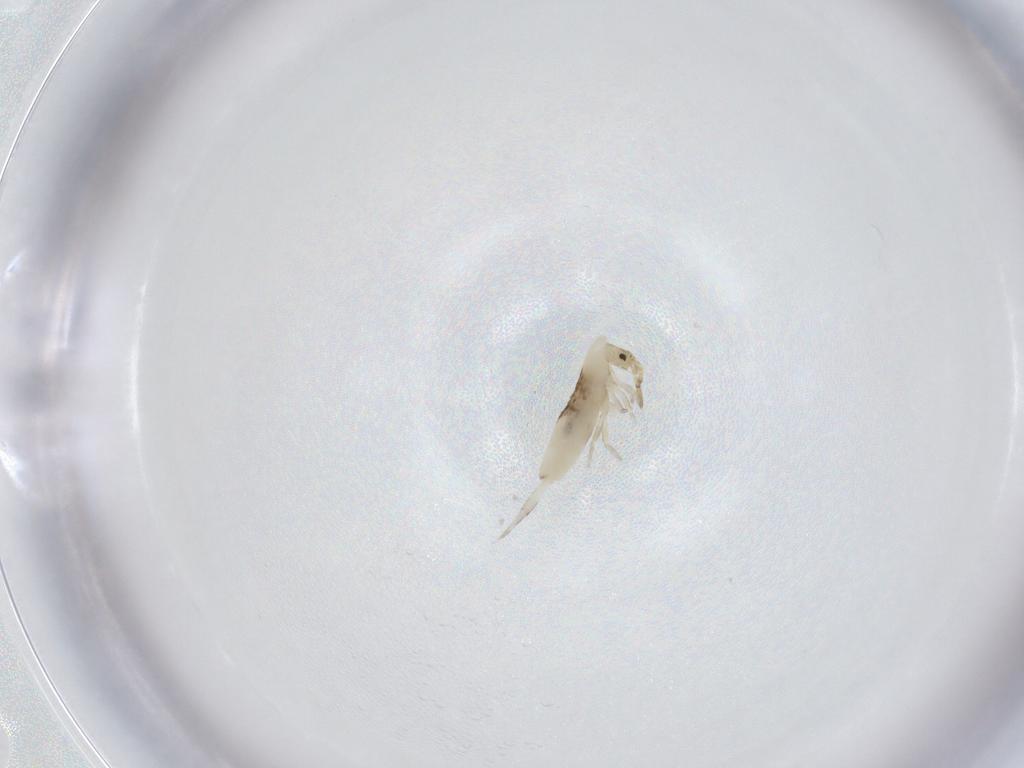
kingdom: Animalia
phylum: Arthropoda
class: Collembola
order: Entomobryomorpha
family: Entomobryidae
